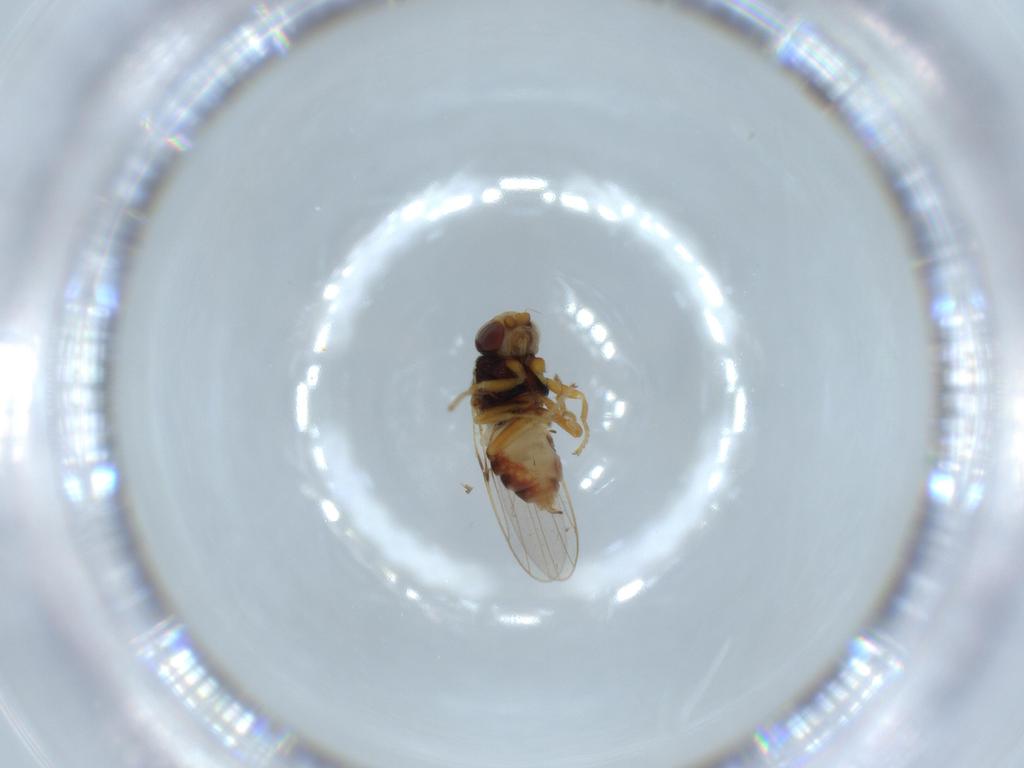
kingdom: Animalia
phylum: Arthropoda
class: Insecta
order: Diptera
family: Chloropidae
